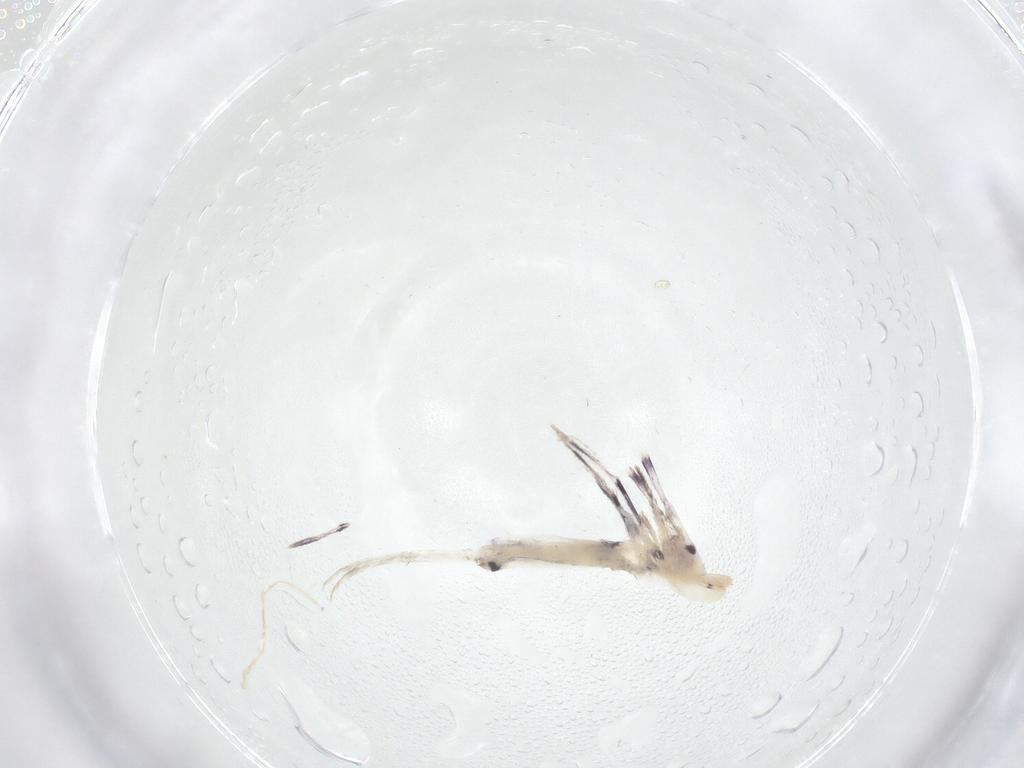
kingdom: Animalia
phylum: Arthropoda
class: Collembola
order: Entomobryomorpha
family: Entomobryidae
